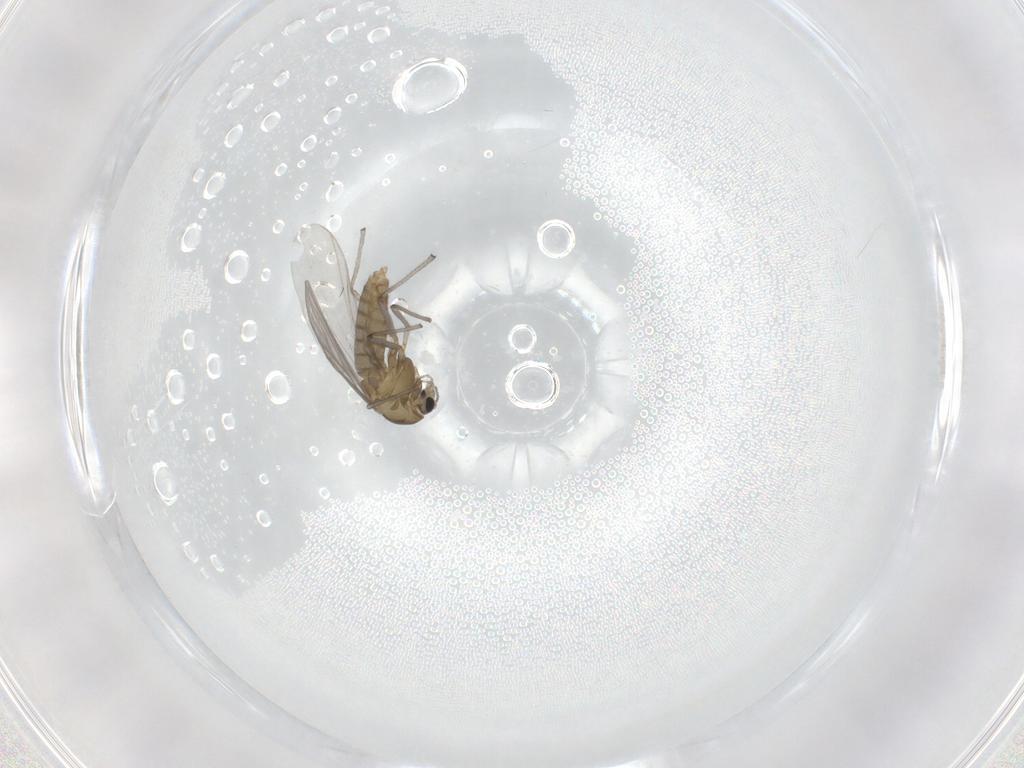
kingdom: Animalia
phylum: Arthropoda
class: Insecta
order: Diptera
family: Chironomidae
